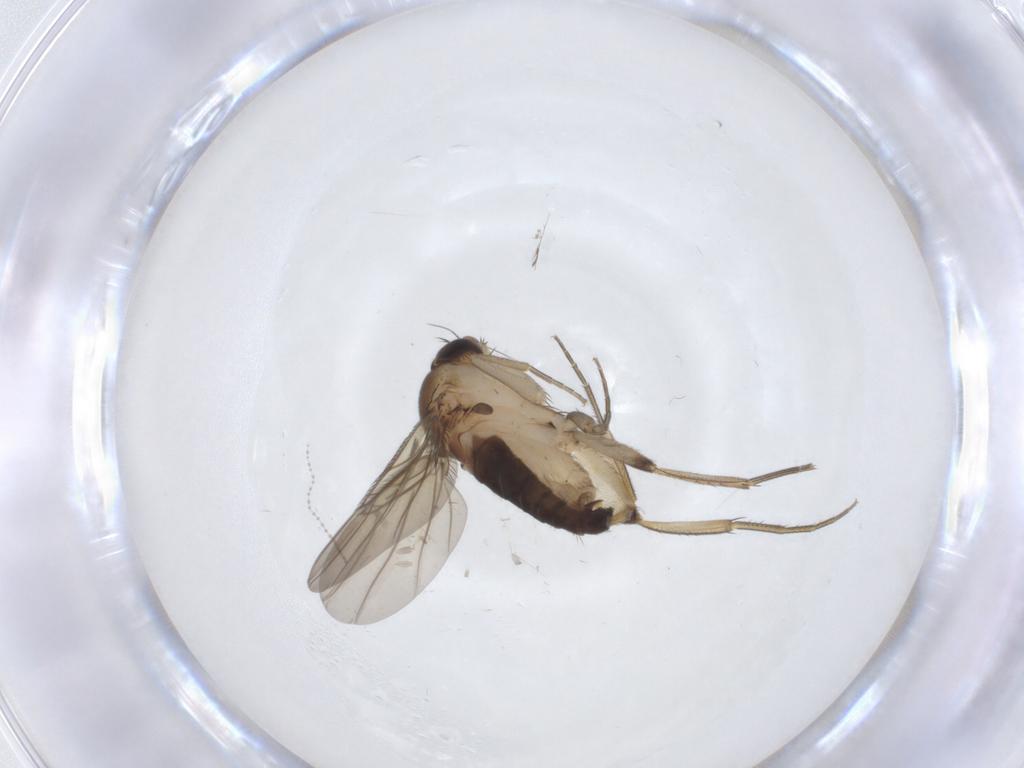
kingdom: Animalia
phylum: Arthropoda
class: Insecta
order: Diptera
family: Phoridae
